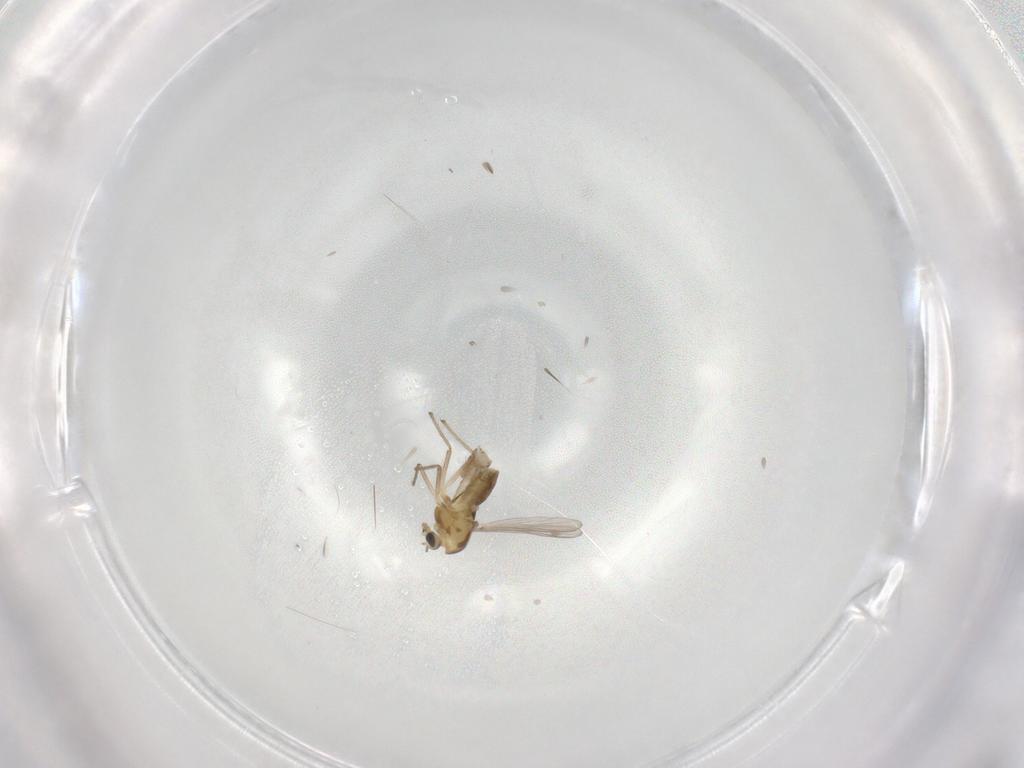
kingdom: Animalia
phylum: Arthropoda
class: Insecta
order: Diptera
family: Chironomidae
